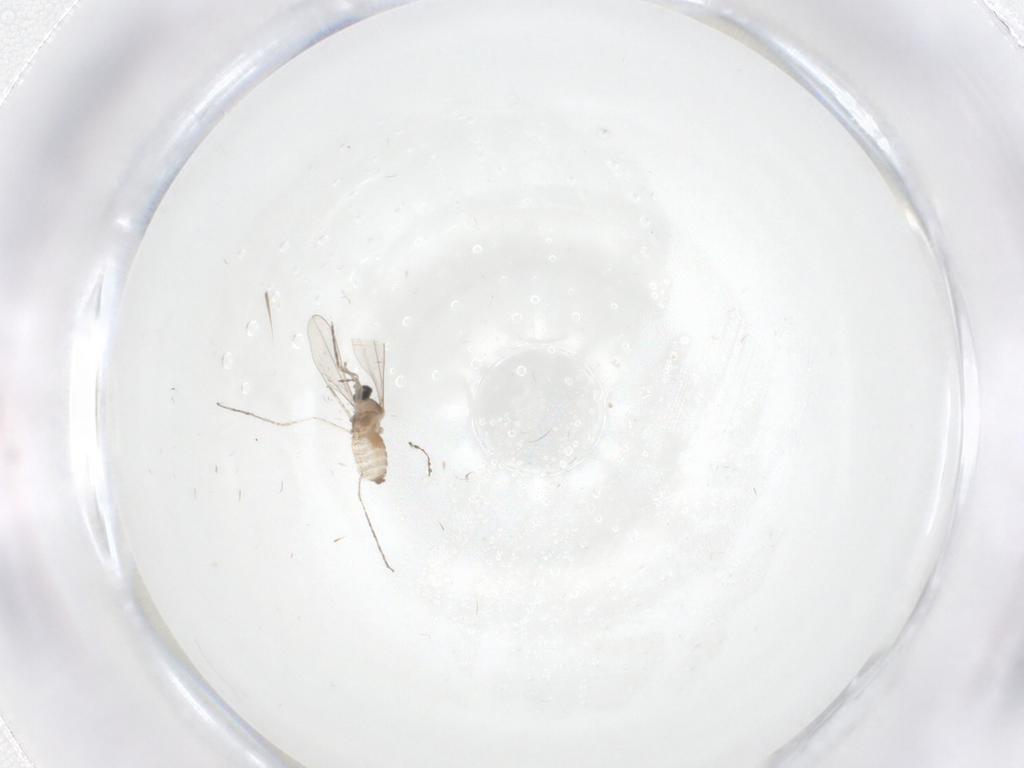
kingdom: Animalia
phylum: Arthropoda
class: Insecta
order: Diptera
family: Cecidomyiidae
